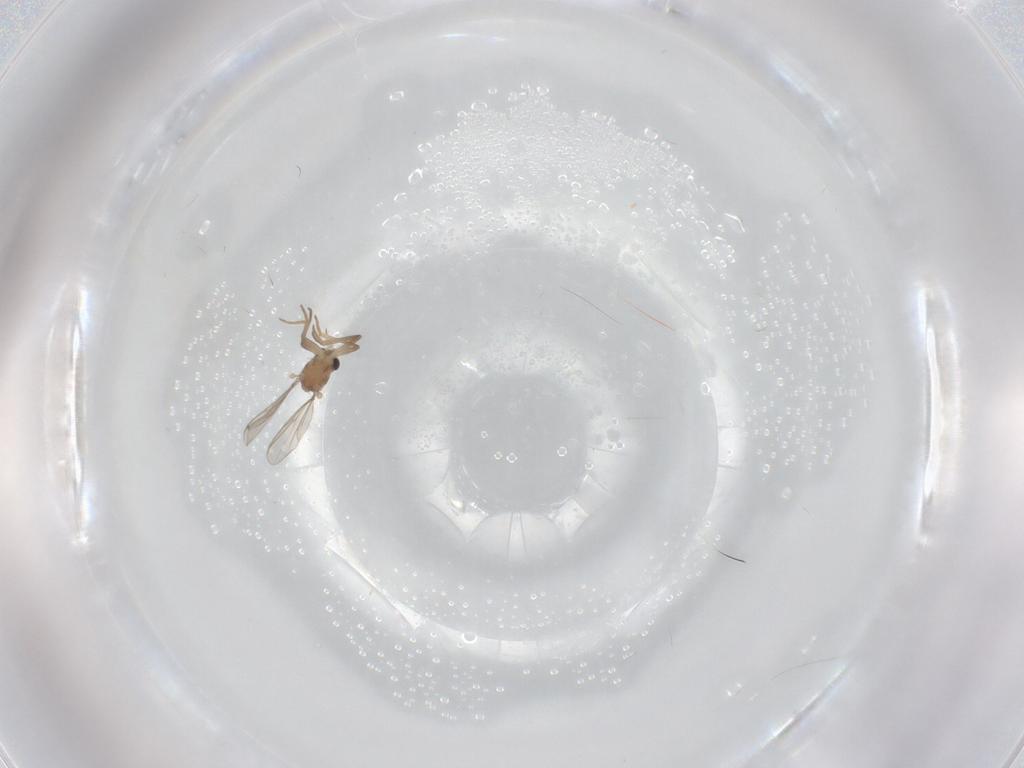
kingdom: Animalia
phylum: Arthropoda
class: Insecta
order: Diptera
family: Chironomidae
